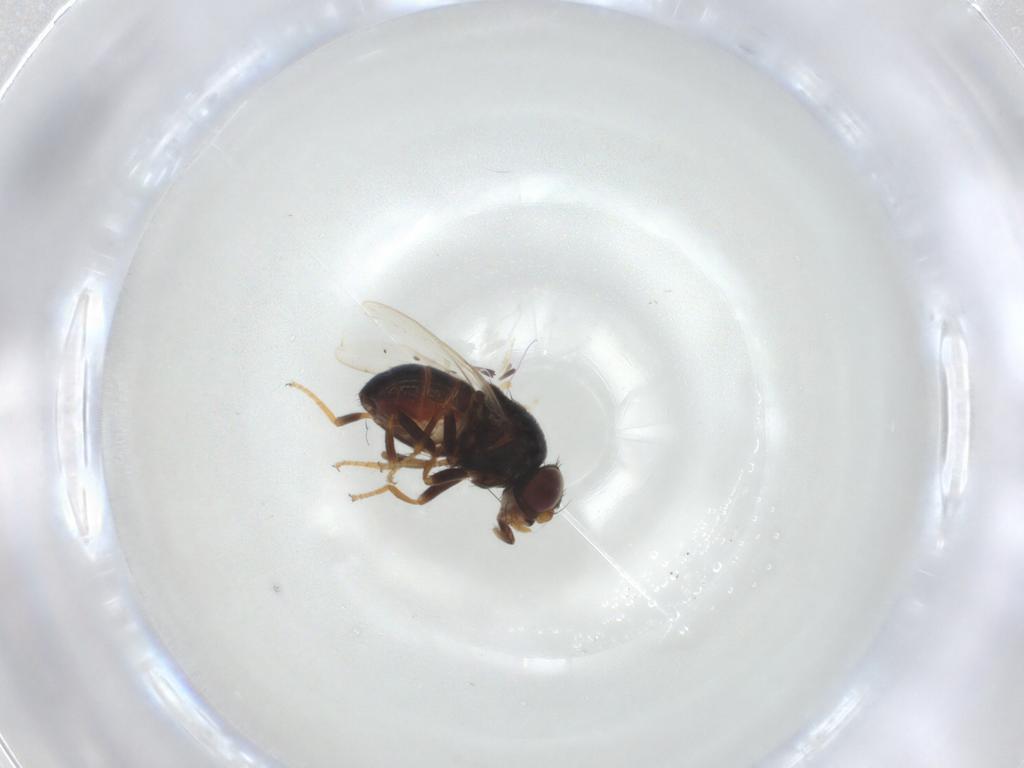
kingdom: Animalia
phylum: Arthropoda
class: Insecta
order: Diptera
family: Chloropidae
